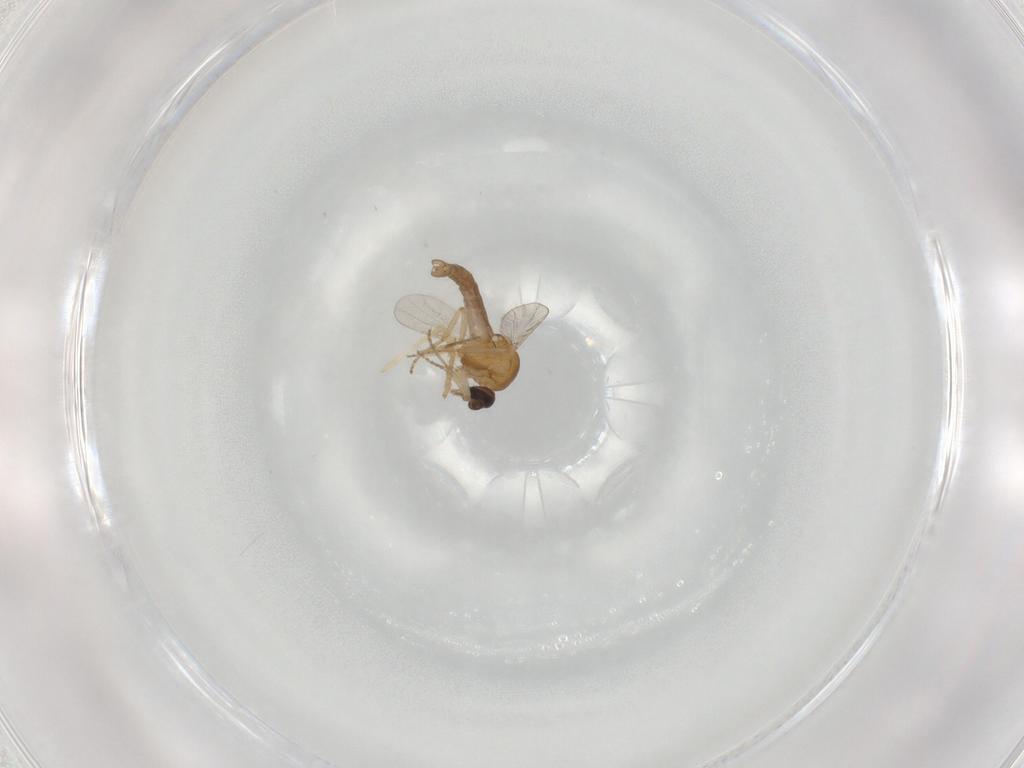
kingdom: Animalia
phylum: Arthropoda
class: Insecta
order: Diptera
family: Ceratopogonidae
